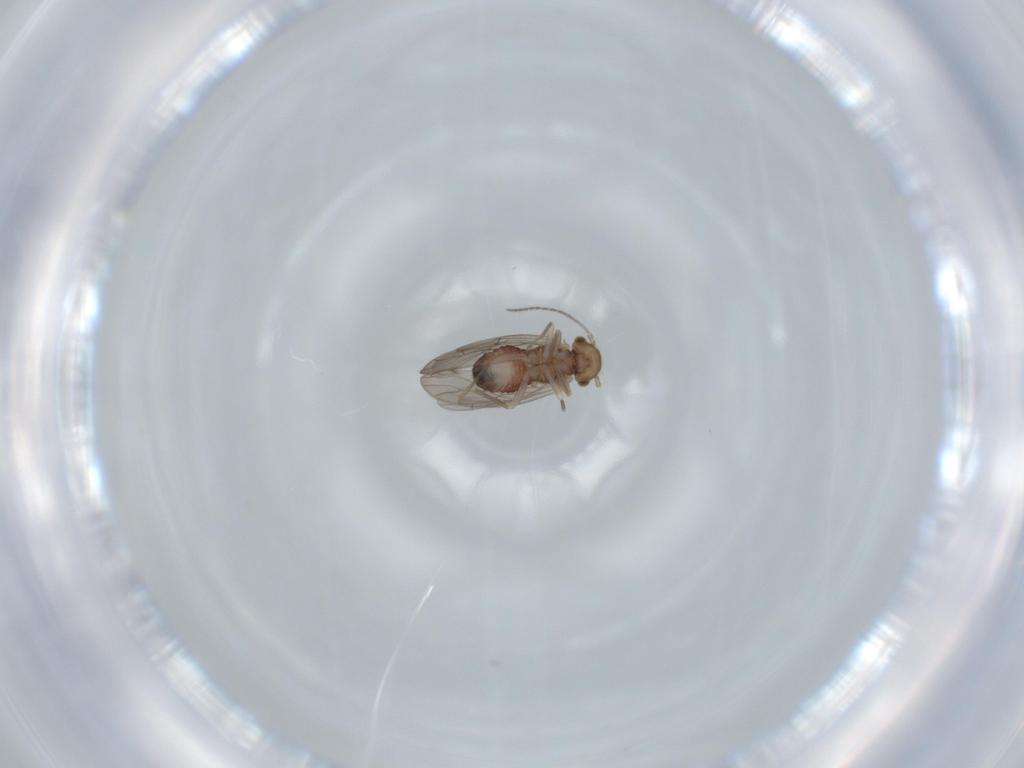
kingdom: Animalia
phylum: Arthropoda
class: Insecta
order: Psocodea
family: Ectopsocidae
